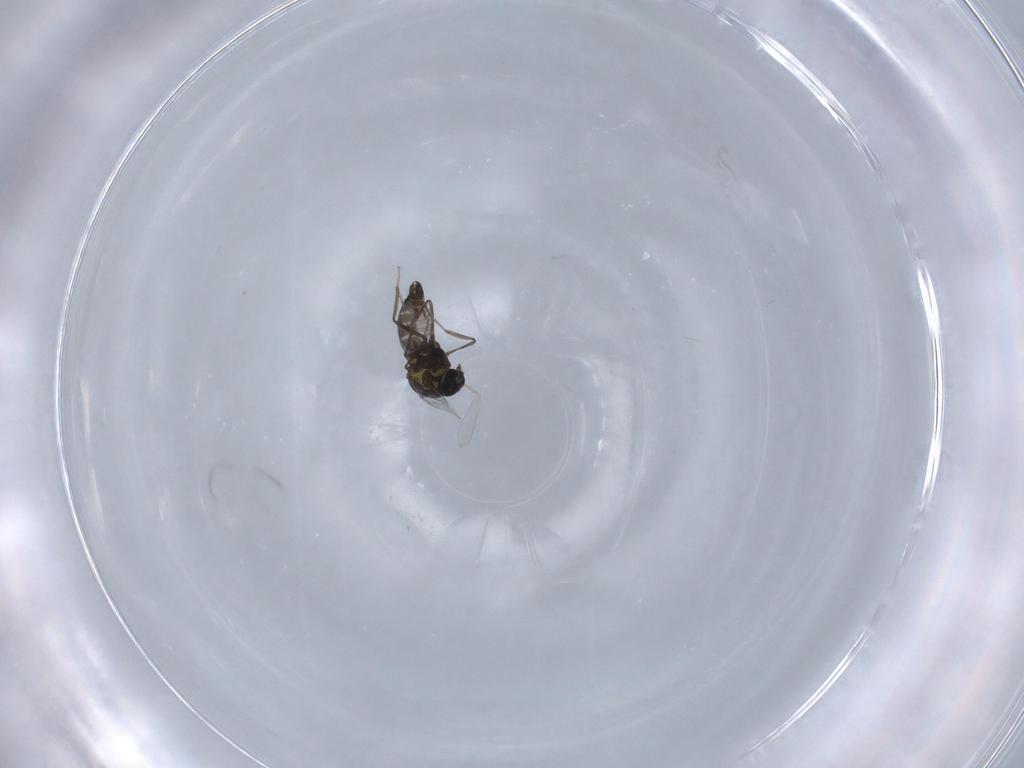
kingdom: Animalia
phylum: Arthropoda
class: Insecta
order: Diptera
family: Ceratopogonidae
